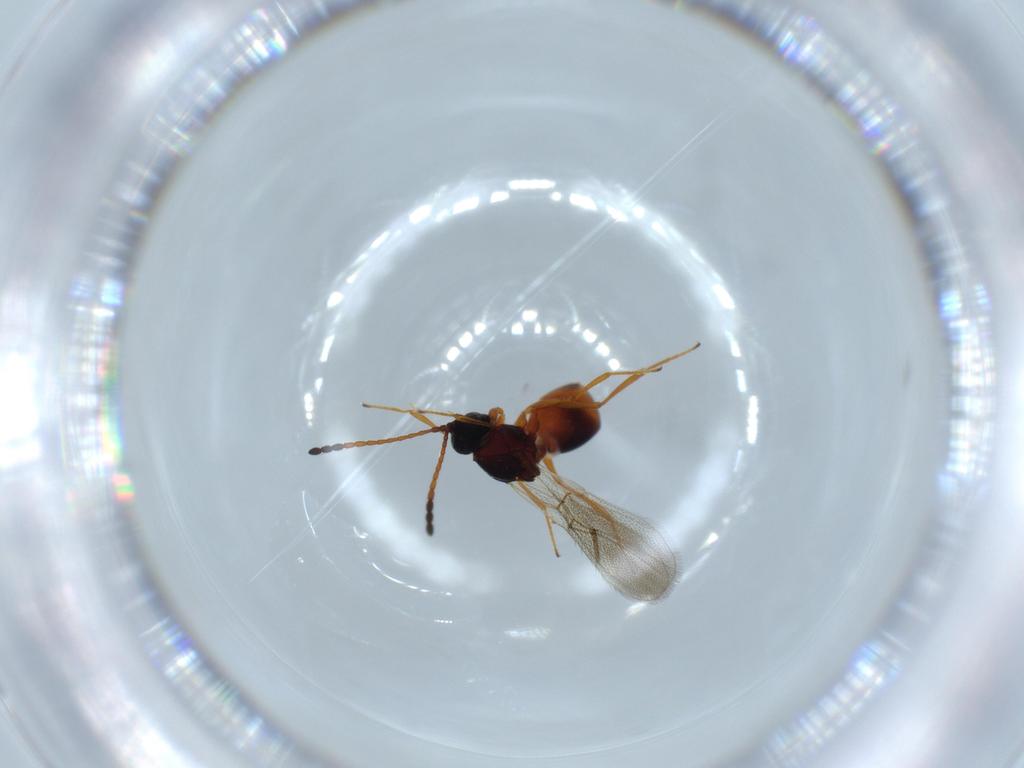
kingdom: Animalia
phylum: Arthropoda
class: Insecta
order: Hymenoptera
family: Figitidae
